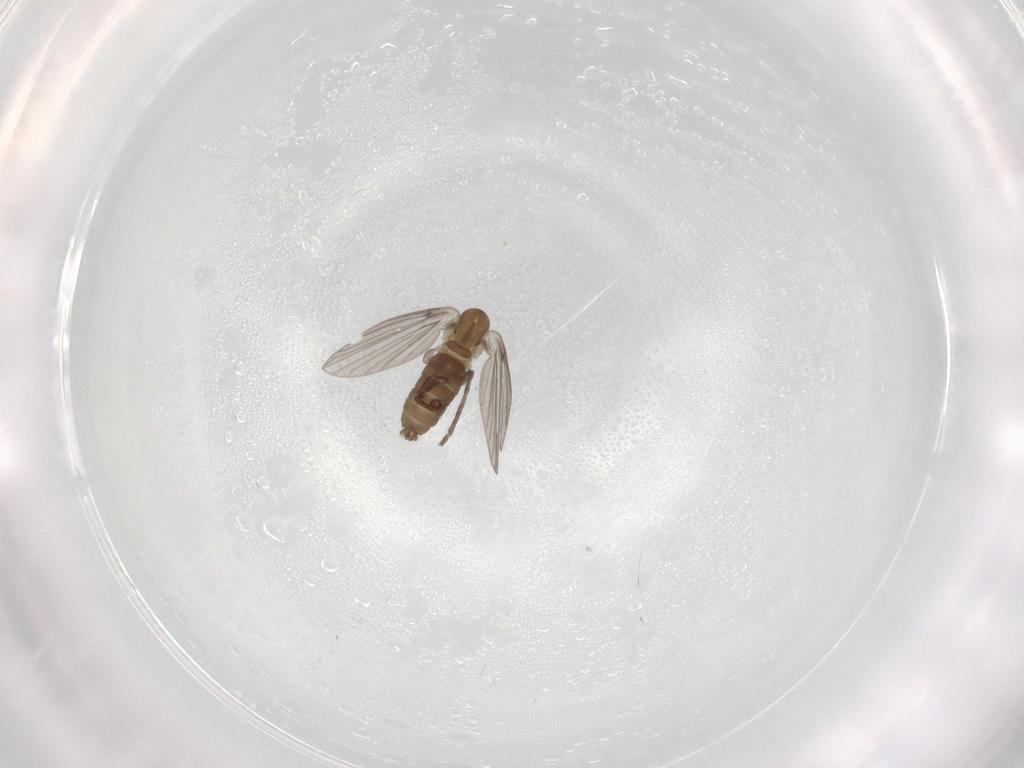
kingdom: Animalia
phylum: Arthropoda
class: Insecta
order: Diptera
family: Psychodidae
